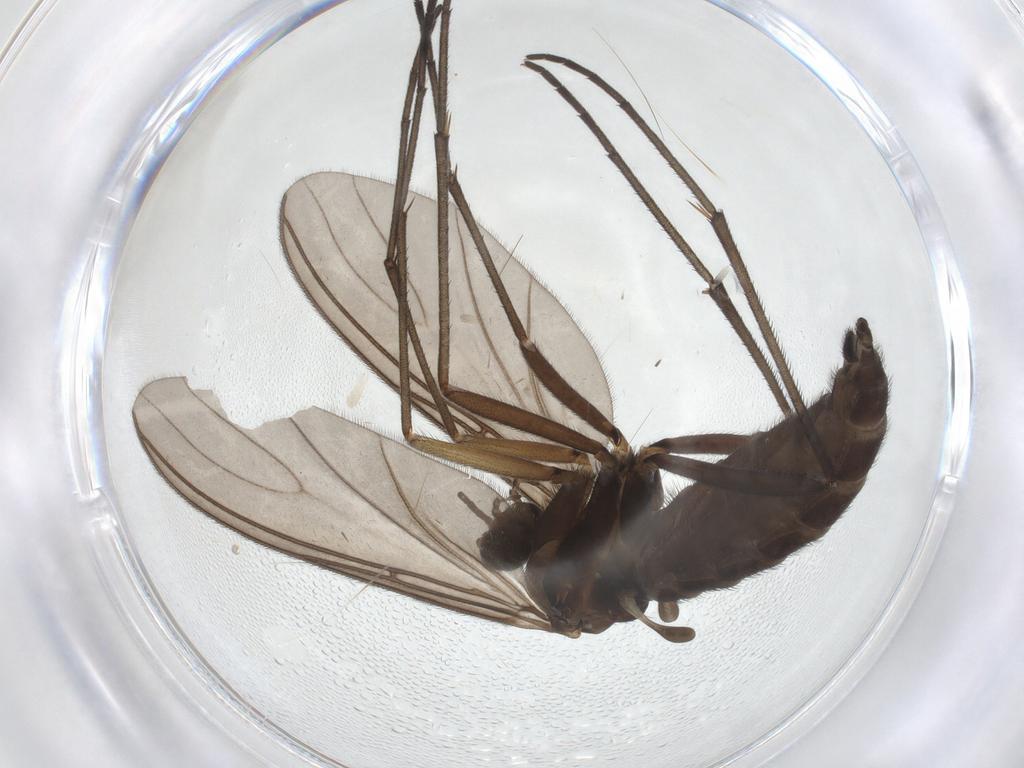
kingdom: Animalia
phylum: Arthropoda
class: Insecta
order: Diptera
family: Sciaridae
